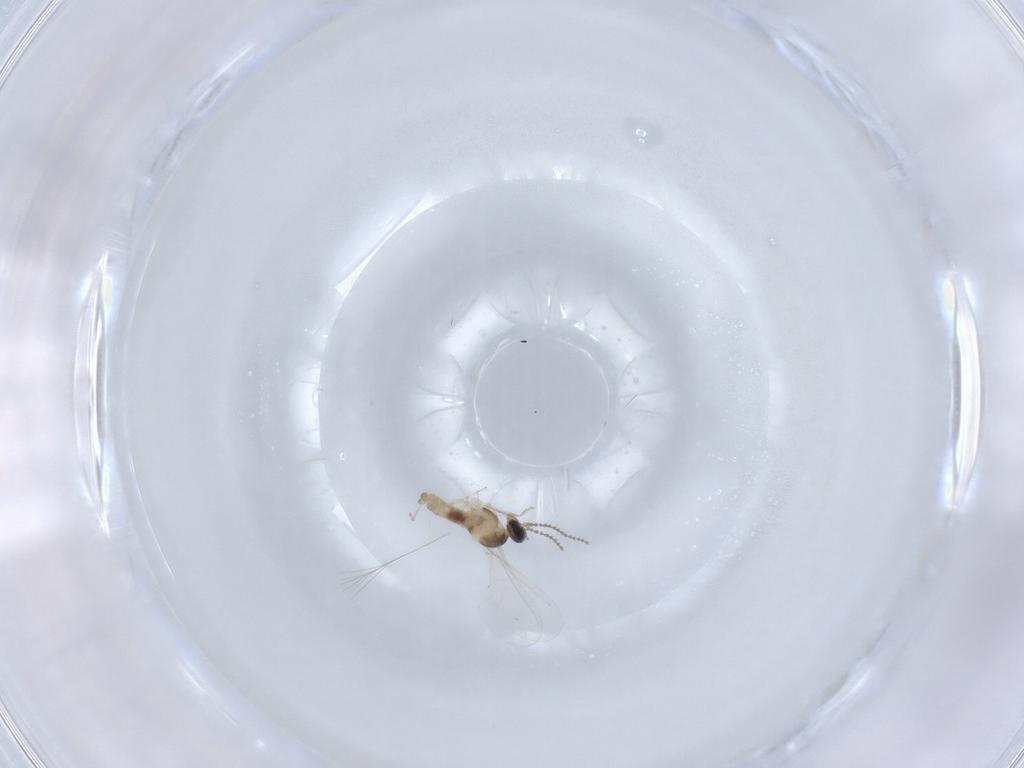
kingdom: Animalia
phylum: Arthropoda
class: Insecta
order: Diptera
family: Cecidomyiidae
